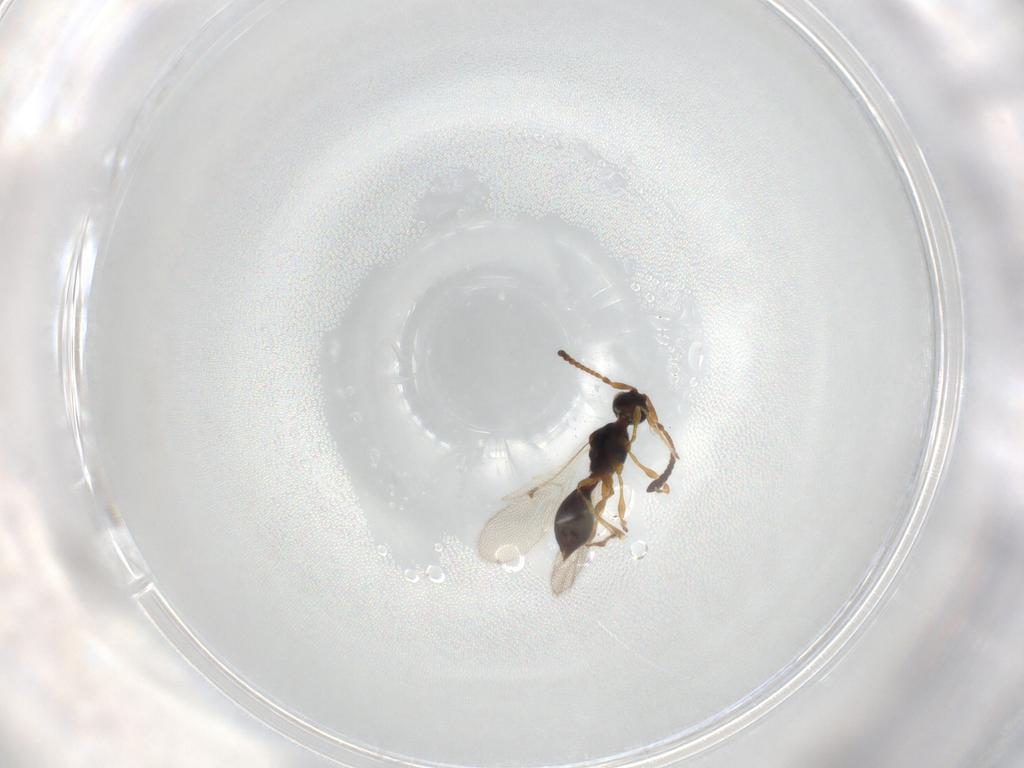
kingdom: Animalia
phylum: Arthropoda
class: Insecta
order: Hymenoptera
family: Diapriidae
